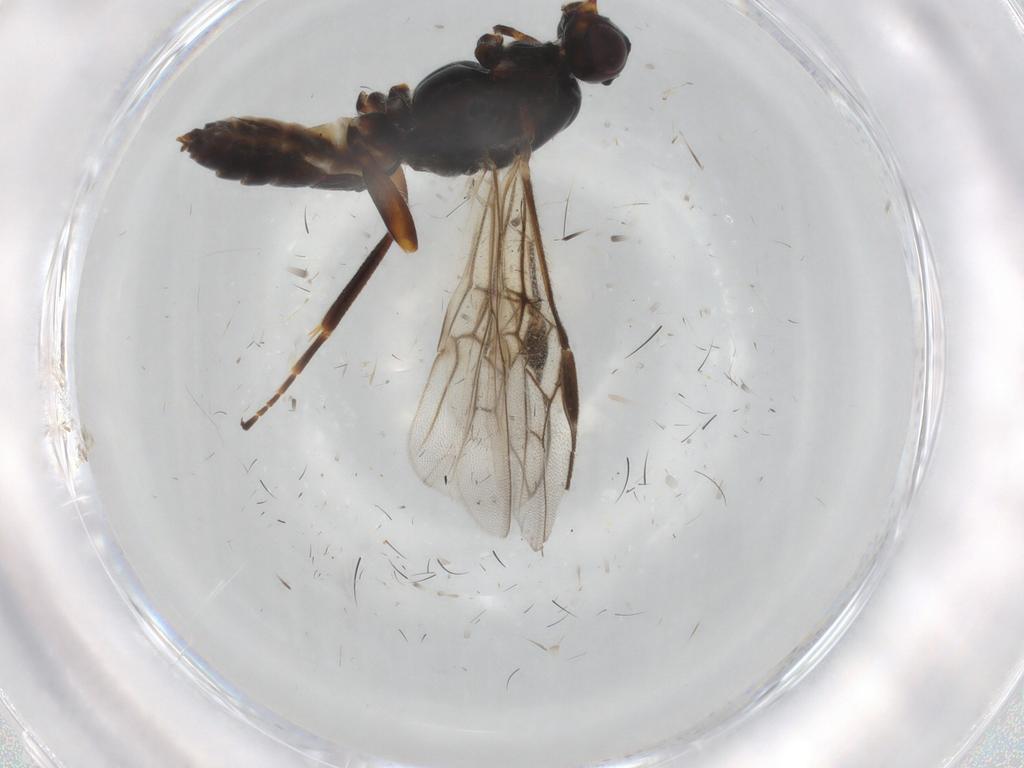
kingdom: Animalia
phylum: Arthropoda
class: Insecta
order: Hymenoptera
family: Braconidae
